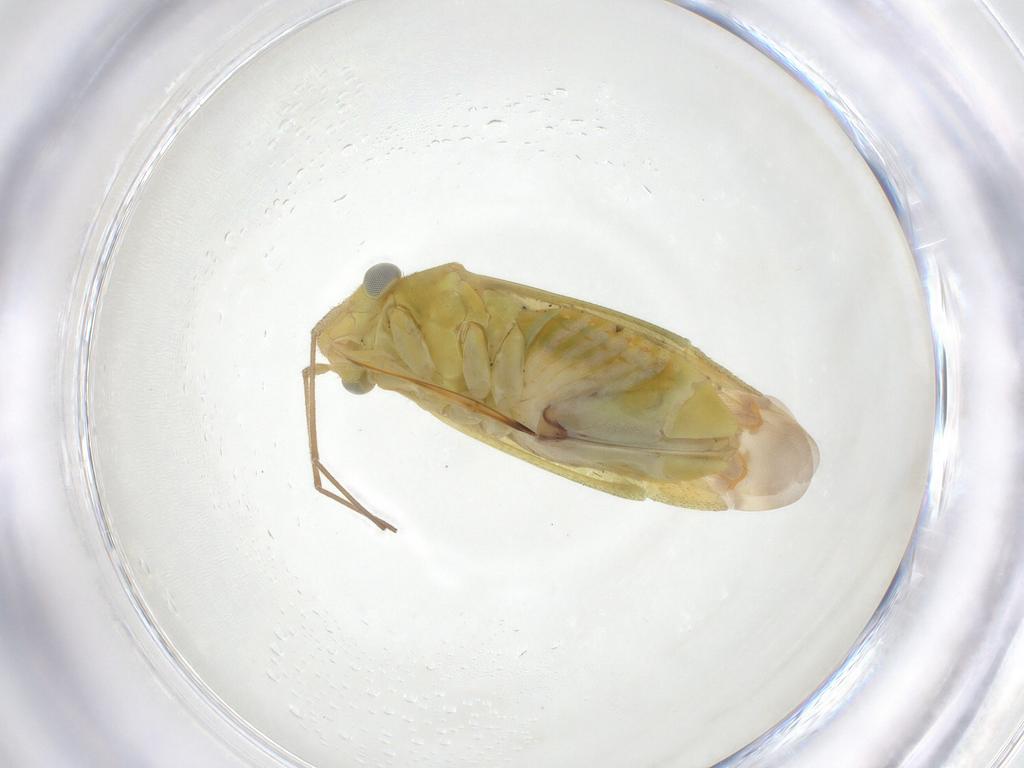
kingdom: Animalia
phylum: Arthropoda
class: Insecta
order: Hemiptera
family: Miridae
